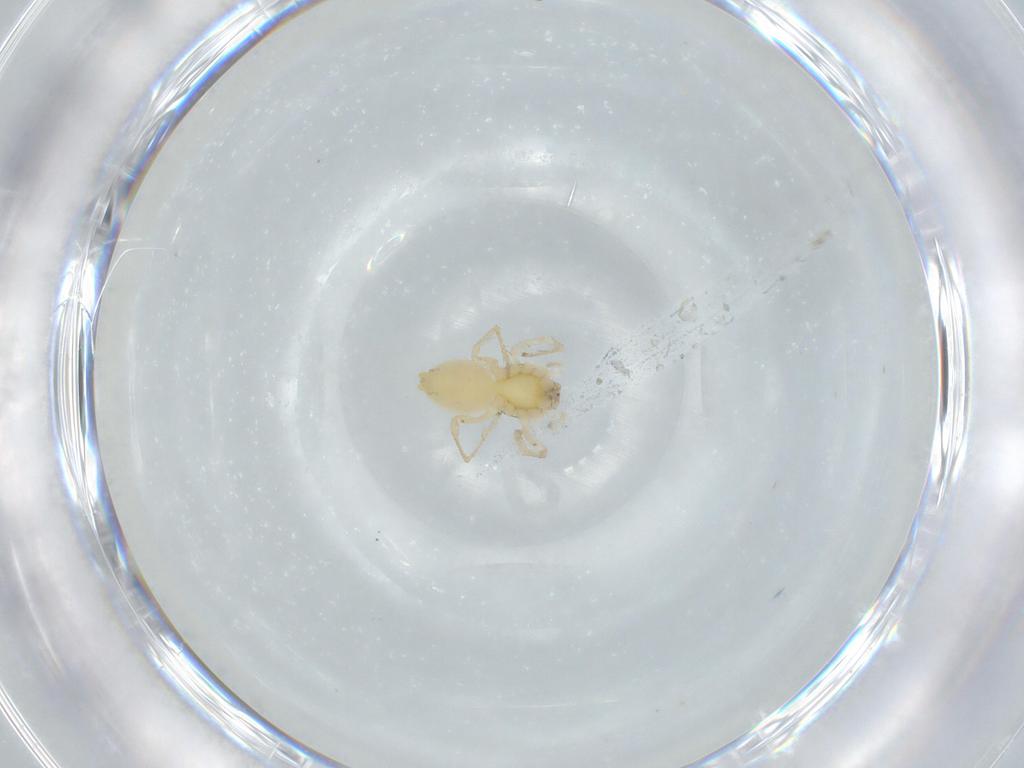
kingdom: Animalia
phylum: Arthropoda
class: Arachnida
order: Araneae
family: Anyphaenidae
